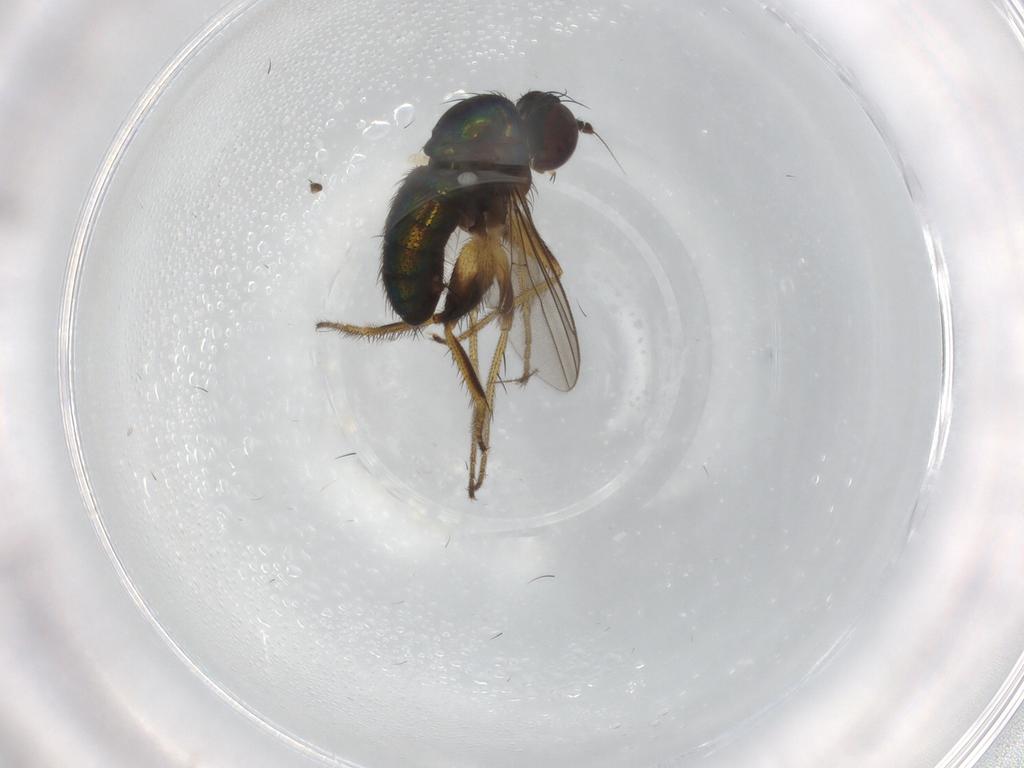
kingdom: Animalia
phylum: Arthropoda
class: Insecta
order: Diptera
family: Dolichopodidae
